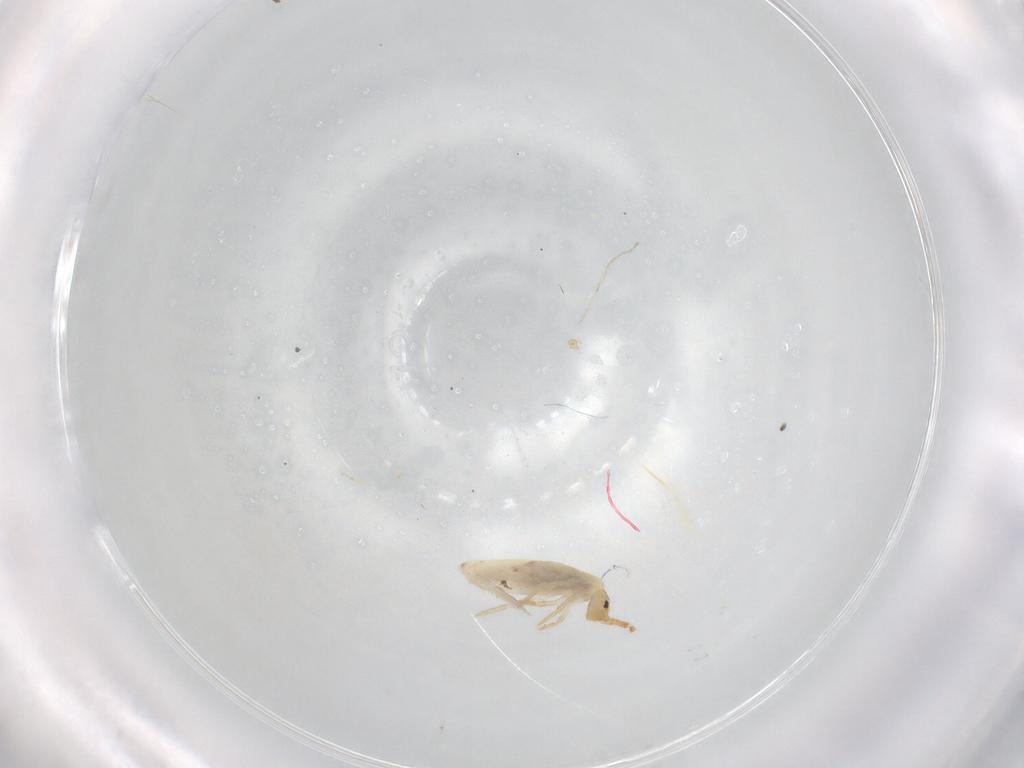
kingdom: Animalia
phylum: Arthropoda
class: Collembola
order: Poduromorpha
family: Hypogastruridae
